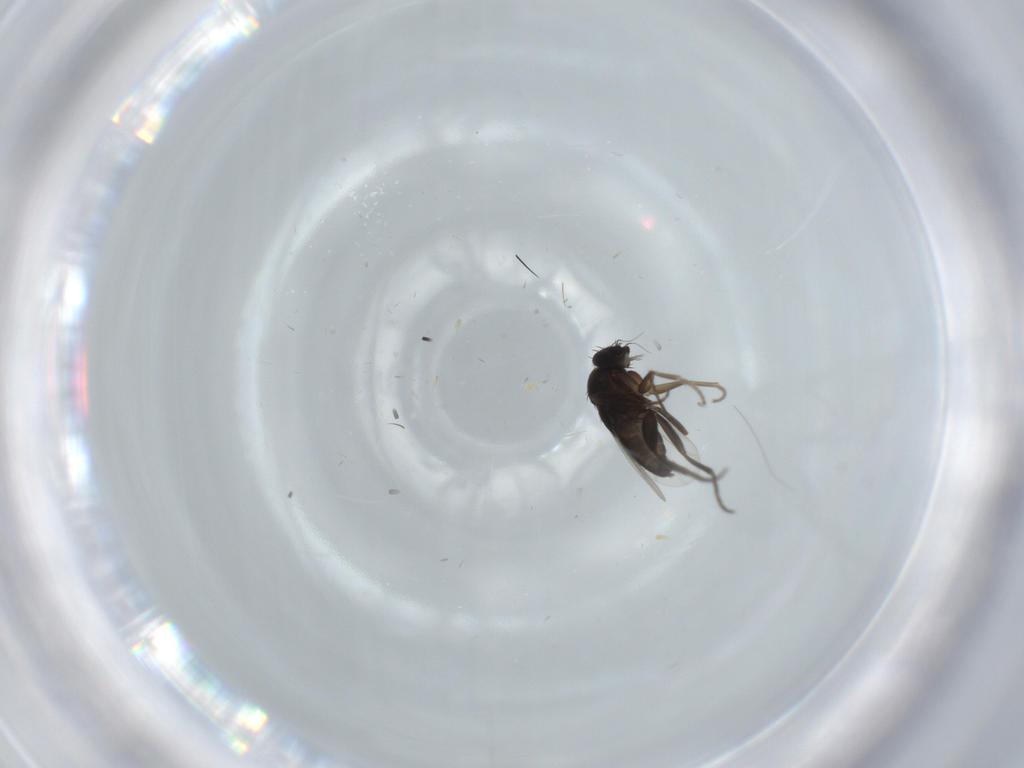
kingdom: Animalia
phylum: Arthropoda
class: Insecta
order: Diptera
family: Phoridae
